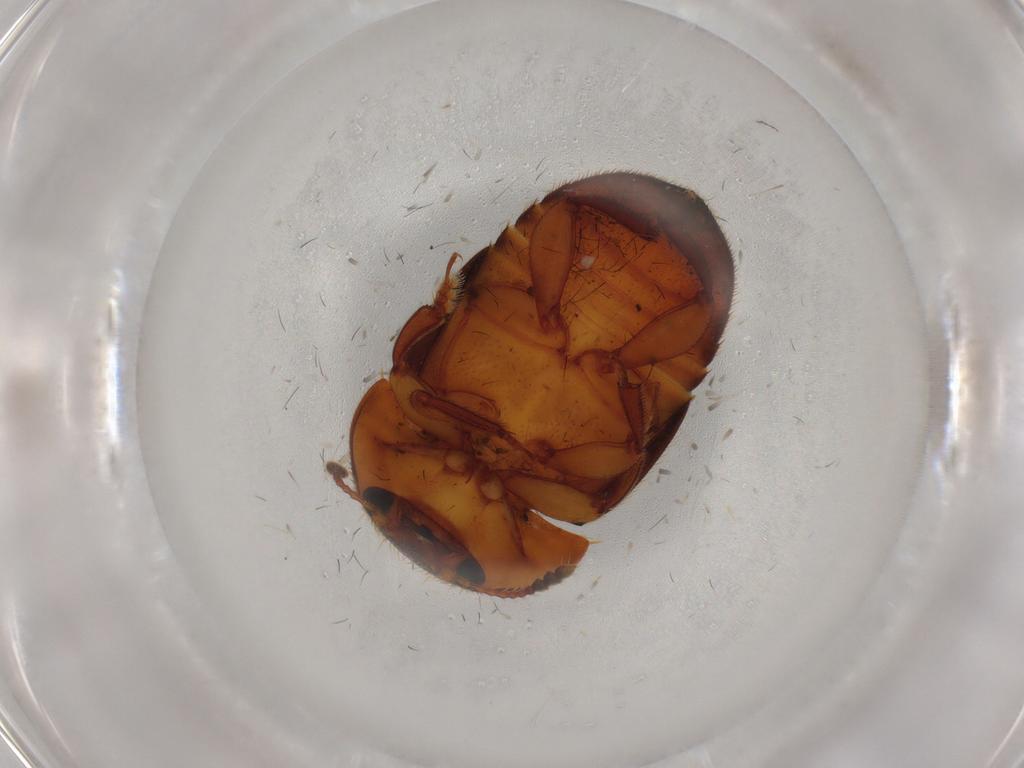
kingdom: Animalia
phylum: Arthropoda
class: Insecta
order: Coleoptera
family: Nitidulidae
